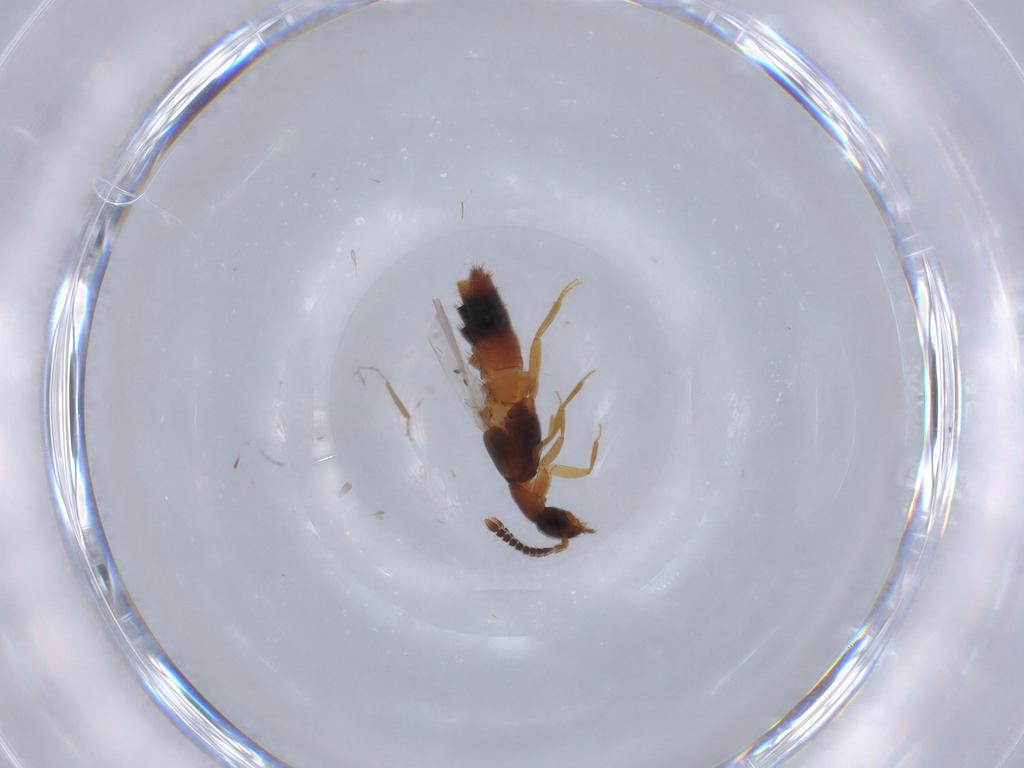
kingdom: Animalia
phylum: Arthropoda
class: Insecta
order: Coleoptera
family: Staphylinidae
